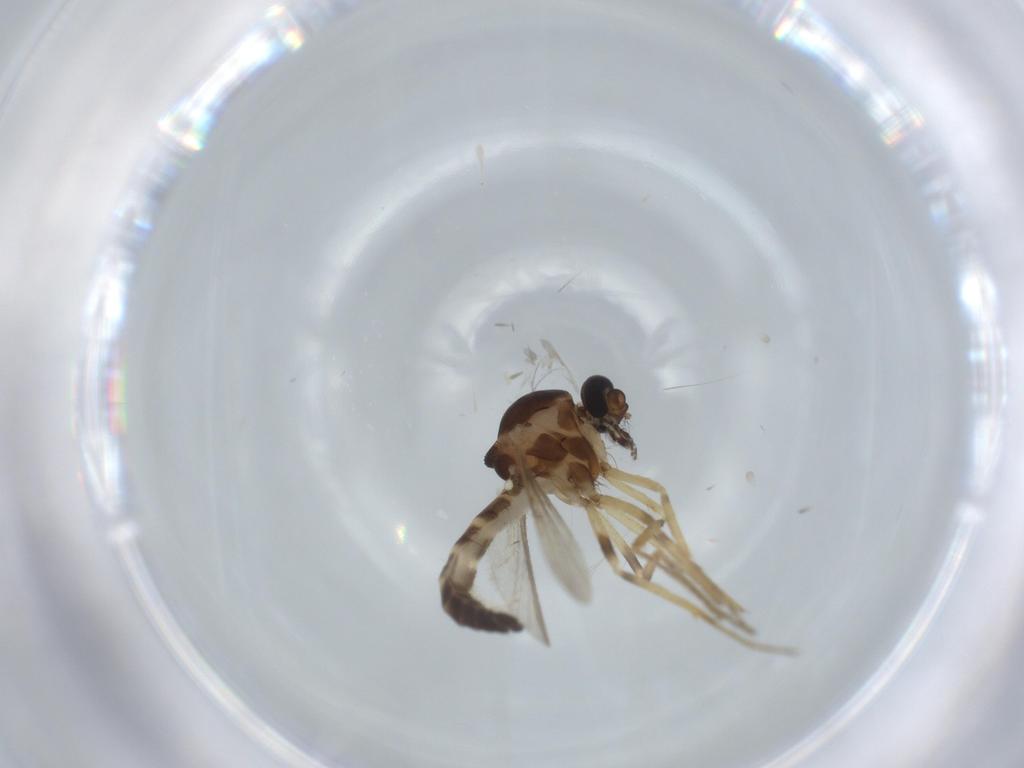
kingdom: Animalia
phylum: Arthropoda
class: Insecta
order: Diptera
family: Ceratopogonidae
